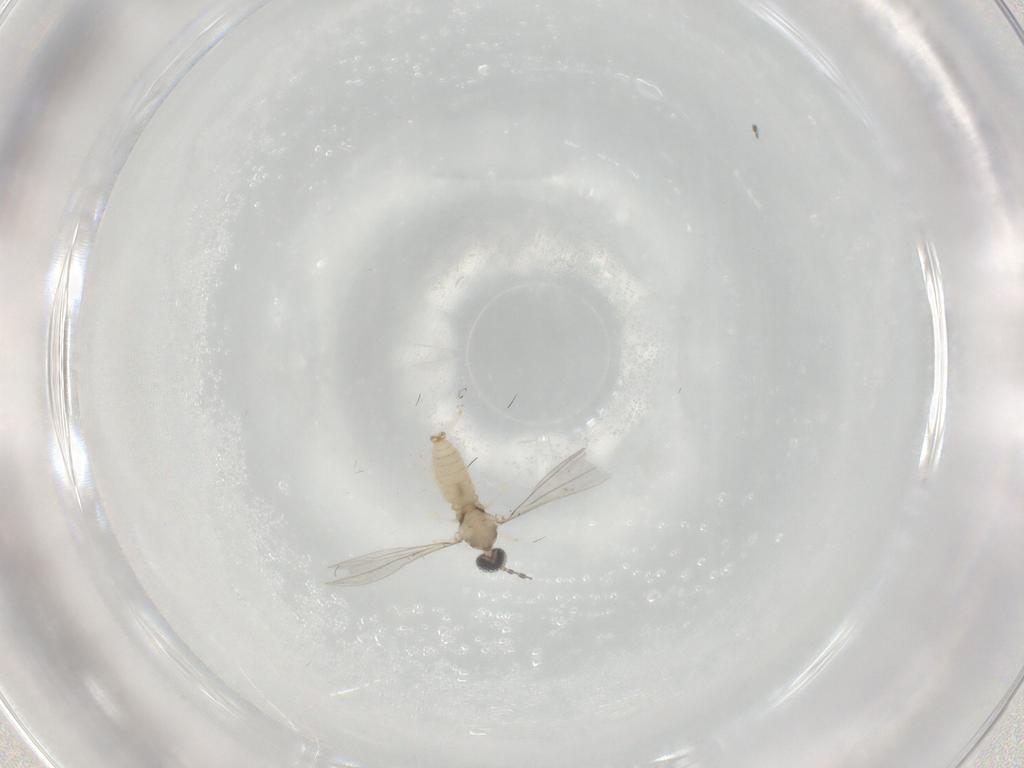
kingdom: Animalia
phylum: Arthropoda
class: Insecta
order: Diptera
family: Cecidomyiidae
